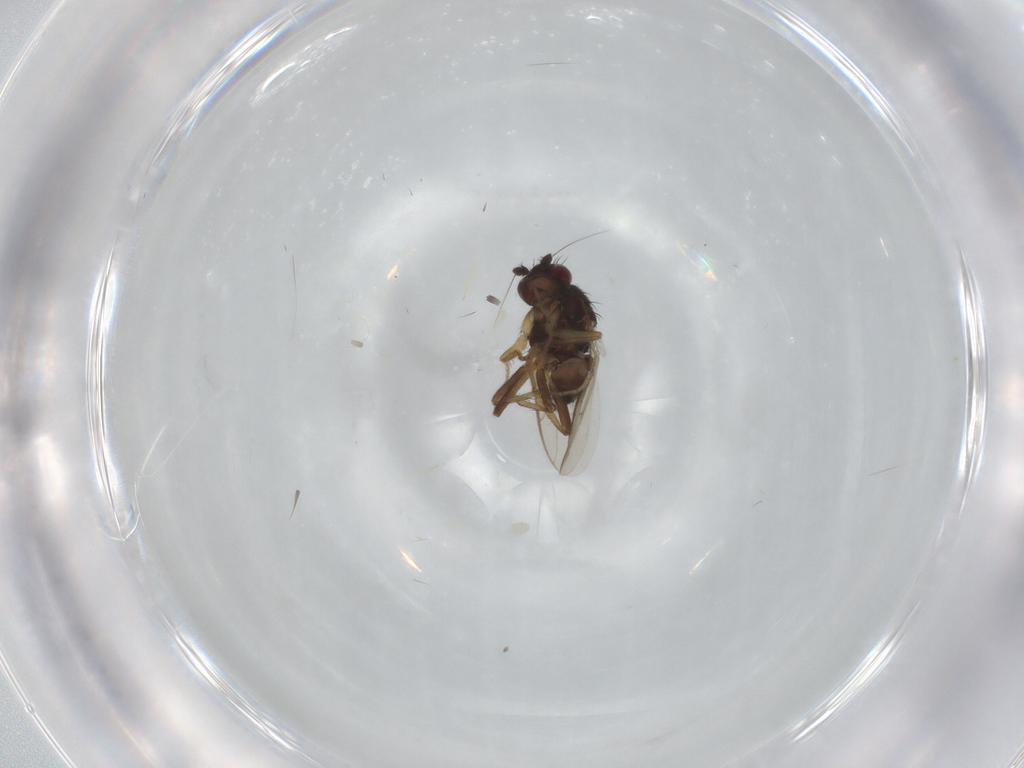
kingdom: Animalia
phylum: Arthropoda
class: Insecta
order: Diptera
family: Sphaeroceridae
